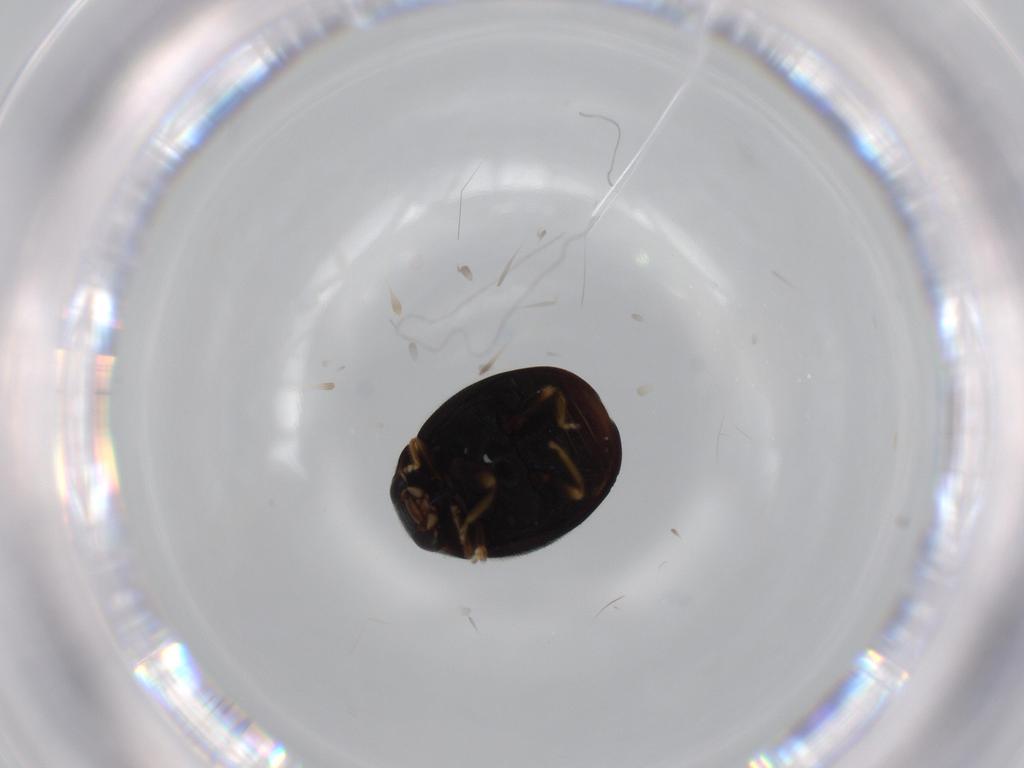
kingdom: Animalia
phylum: Arthropoda
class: Insecta
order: Coleoptera
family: Coccinellidae
